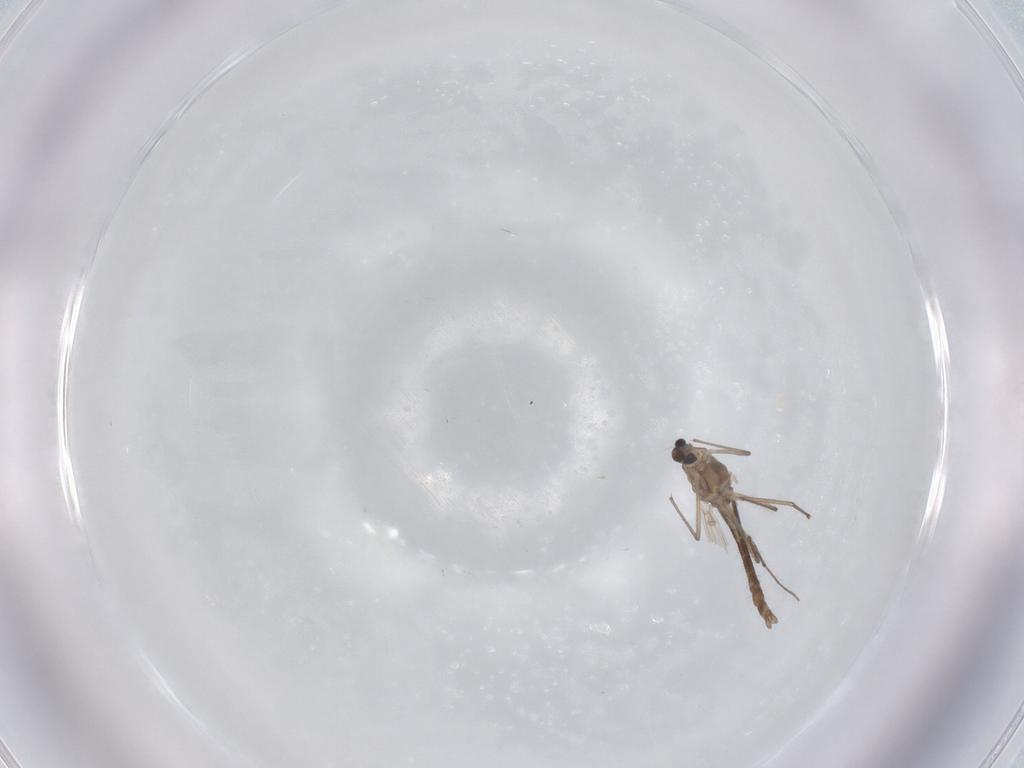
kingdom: Animalia
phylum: Arthropoda
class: Insecta
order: Diptera
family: Chironomidae
